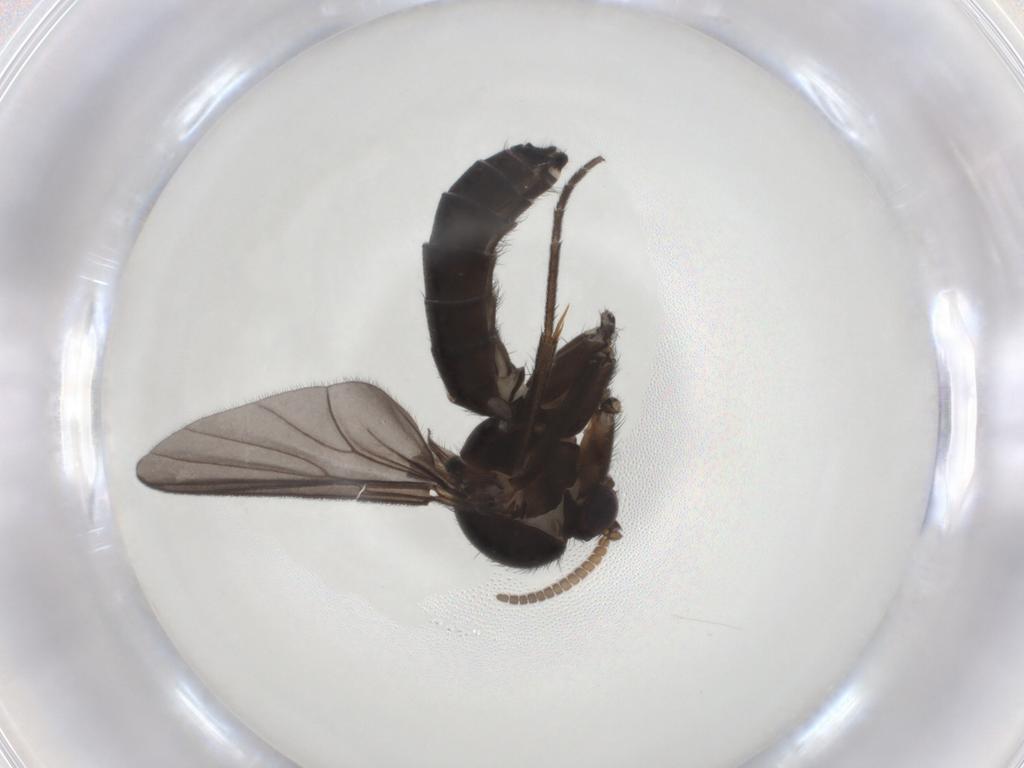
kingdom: Animalia
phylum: Arthropoda
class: Insecta
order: Diptera
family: Mycetophilidae
